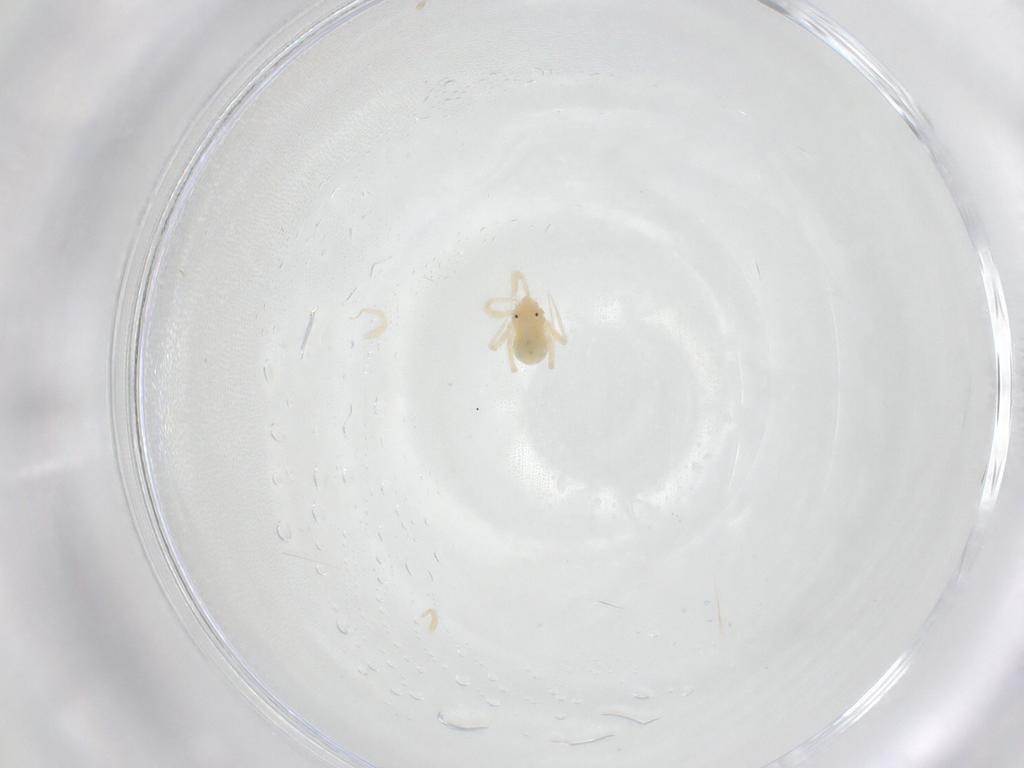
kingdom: Animalia
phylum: Arthropoda
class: Arachnida
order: Trombidiformes
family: Anystidae
